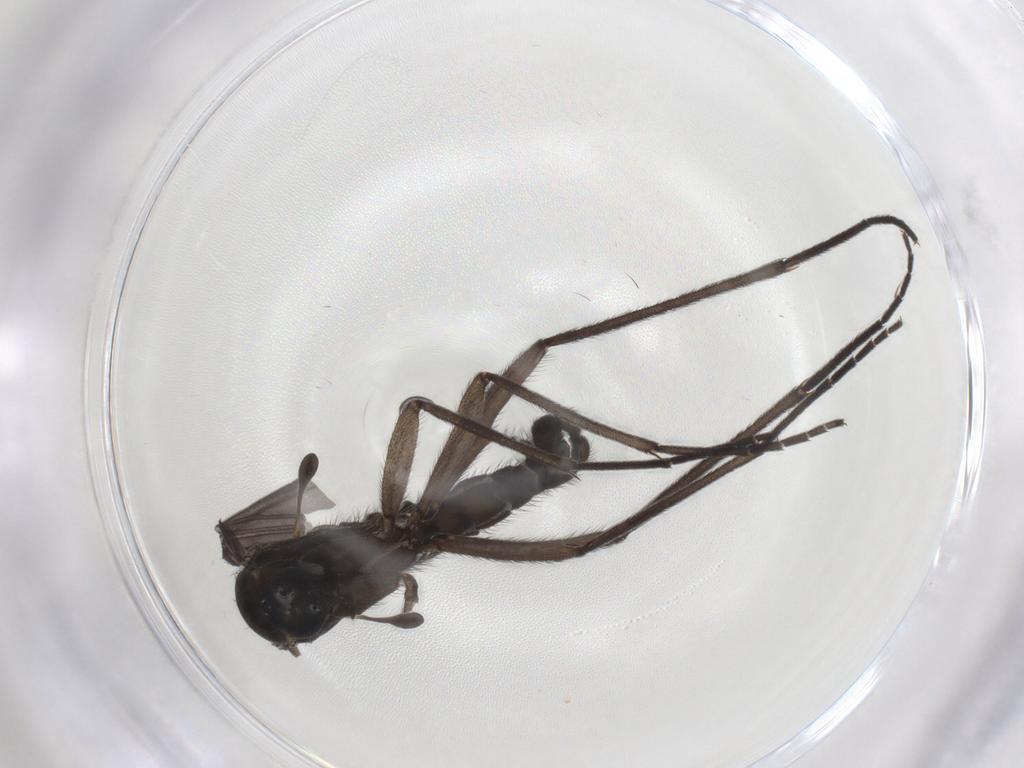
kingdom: Animalia
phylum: Arthropoda
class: Insecta
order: Diptera
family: Sciaridae
